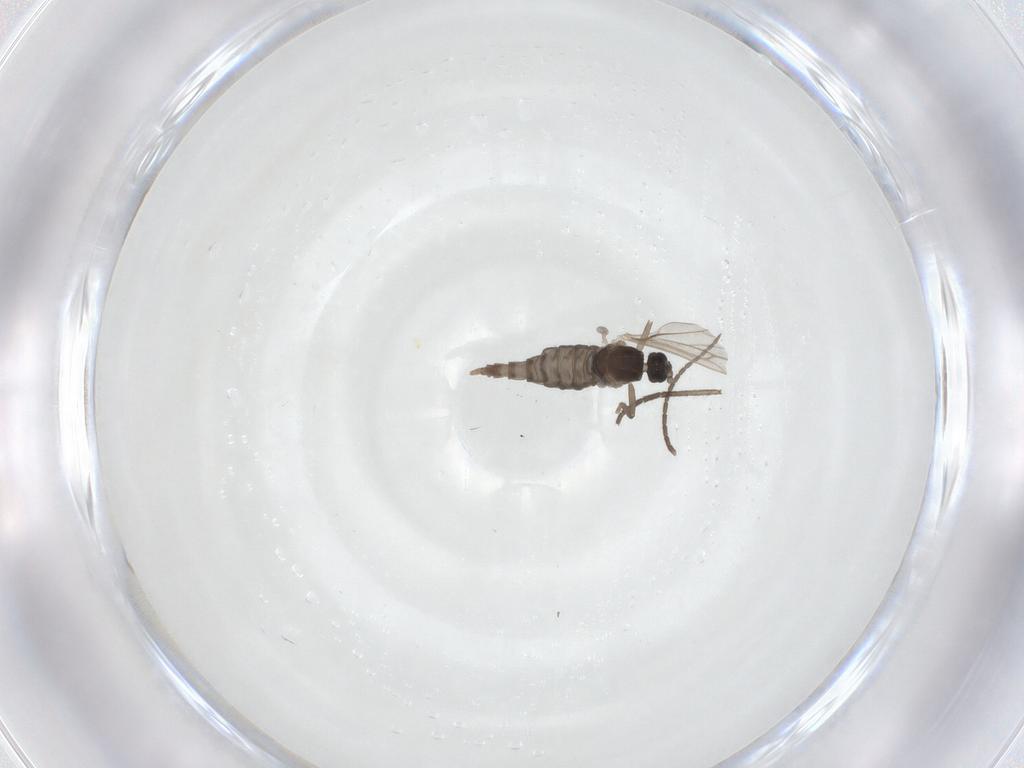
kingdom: Animalia
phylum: Arthropoda
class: Insecta
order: Diptera
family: Cecidomyiidae
